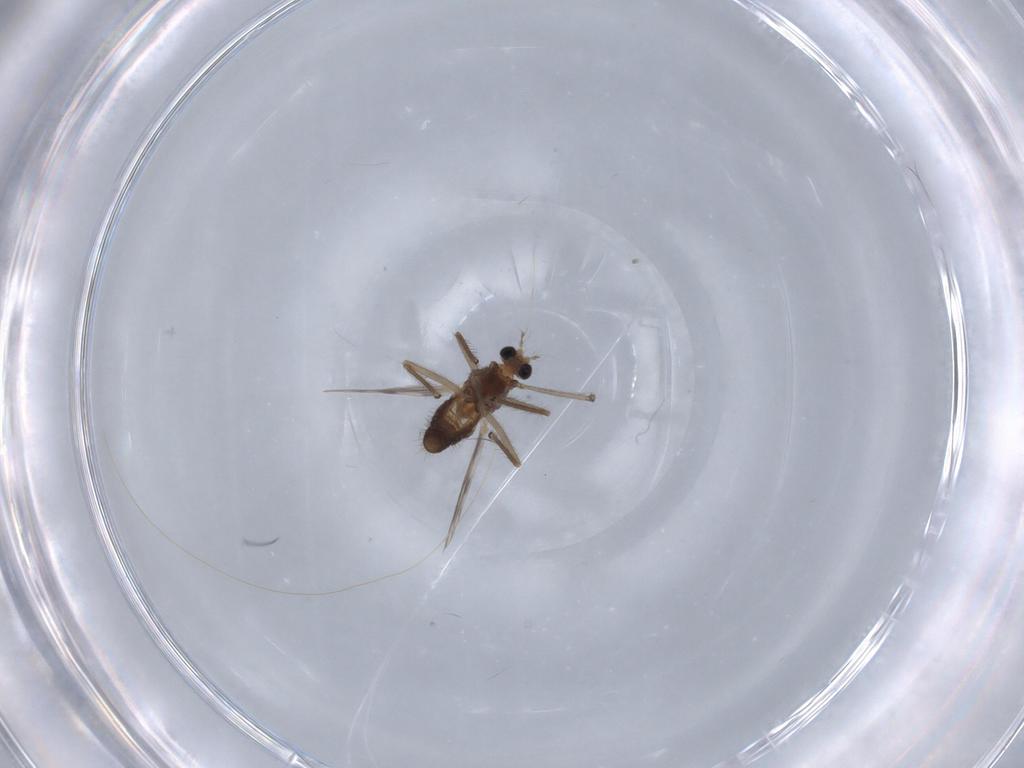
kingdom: Animalia
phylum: Arthropoda
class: Insecta
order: Diptera
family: Chironomidae
